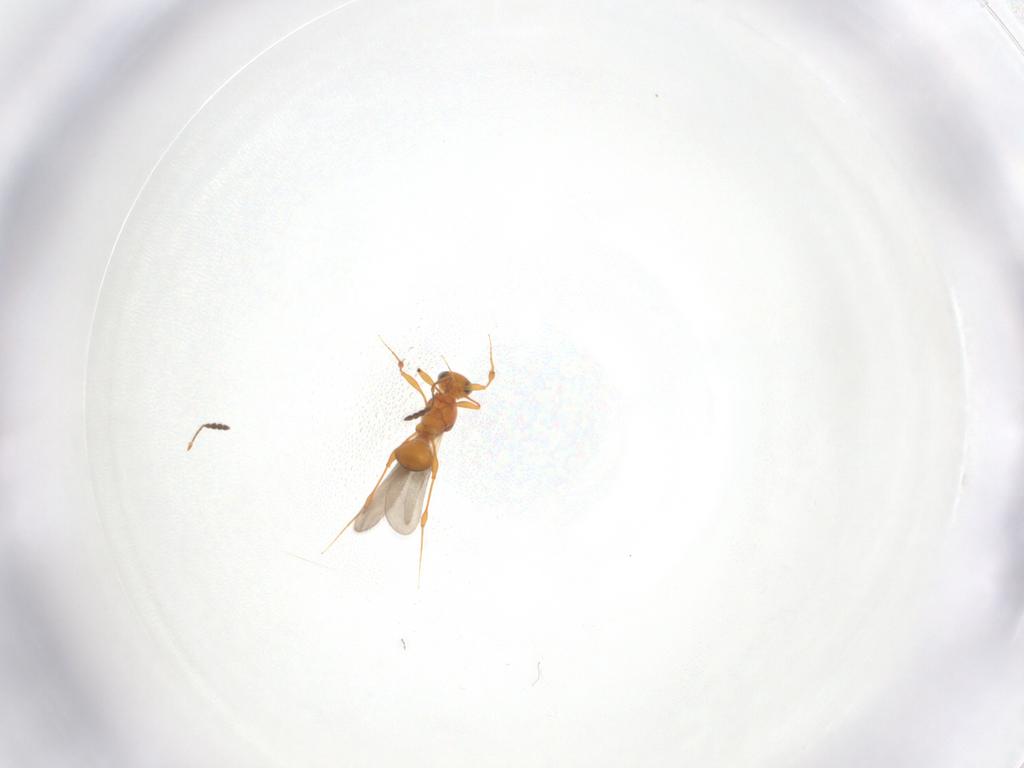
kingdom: Animalia
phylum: Arthropoda
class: Insecta
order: Hymenoptera
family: Platygastridae
